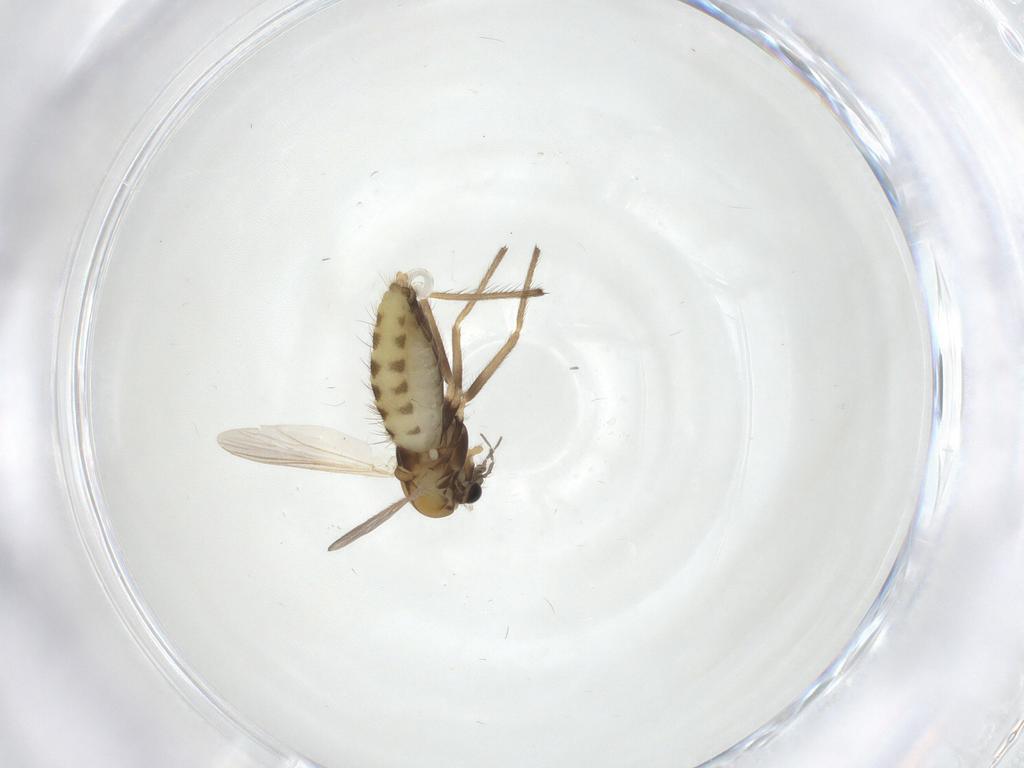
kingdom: Animalia
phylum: Arthropoda
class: Insecta
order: Diptera
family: Chironomidae
